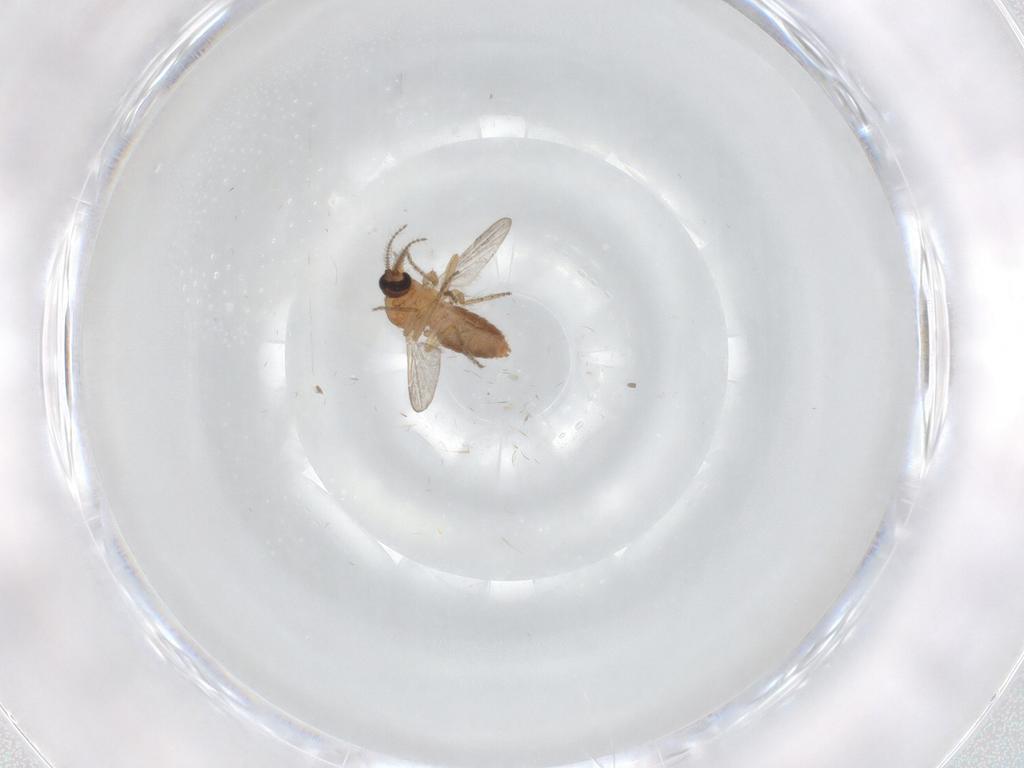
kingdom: Animalia
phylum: Arthropoda
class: Insecta
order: Diptera
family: Ceratopogonidae
